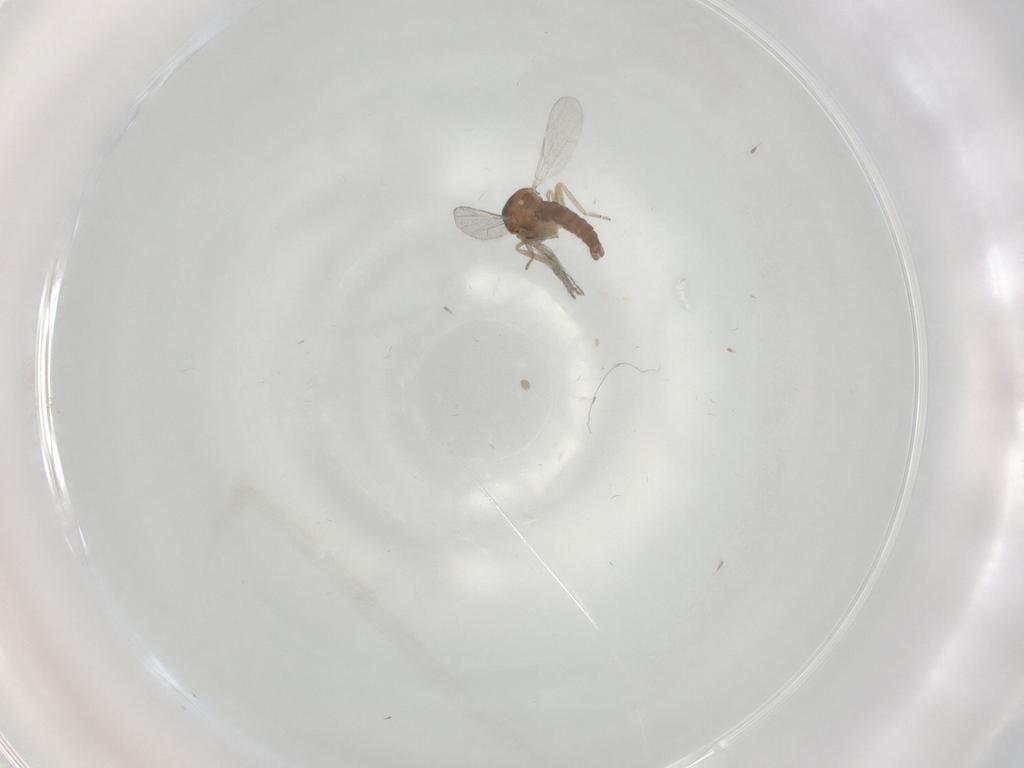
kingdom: Animalia
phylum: Arthropoda
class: Insecta
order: Diptera
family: Ceratopogonidae
